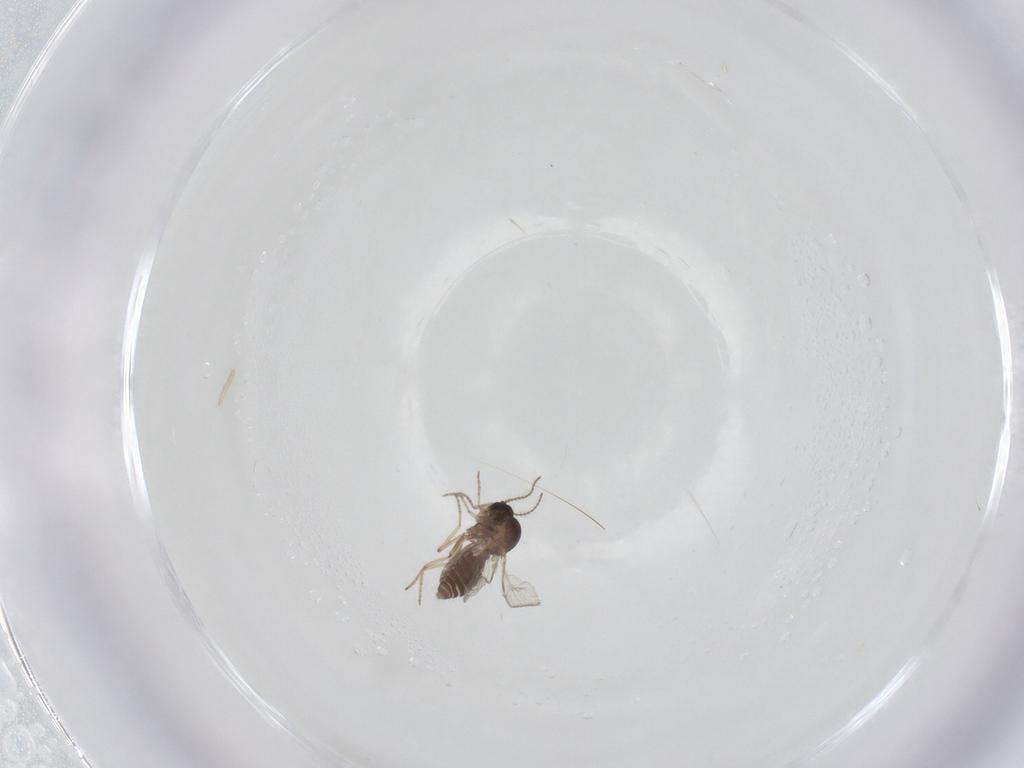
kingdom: Animalia
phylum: Arthropoda
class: Insecta
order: Diptera
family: Ceratopogonidae
